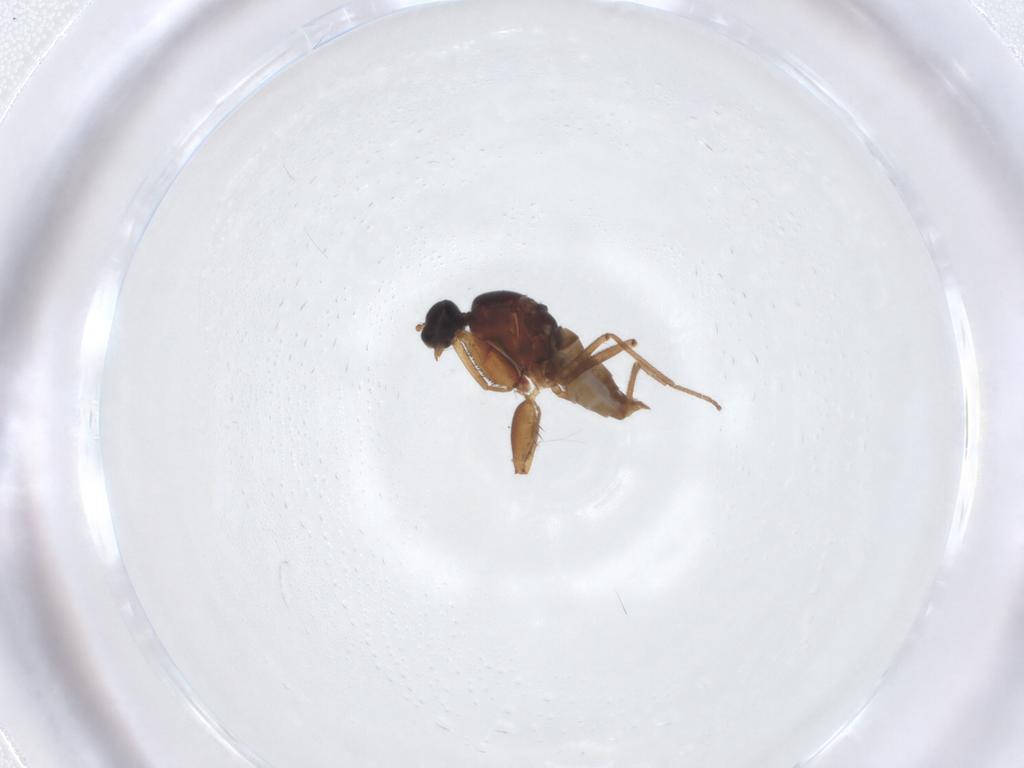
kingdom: Animalia
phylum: Arthropoda
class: Insecta
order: Diptera
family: Empididae
